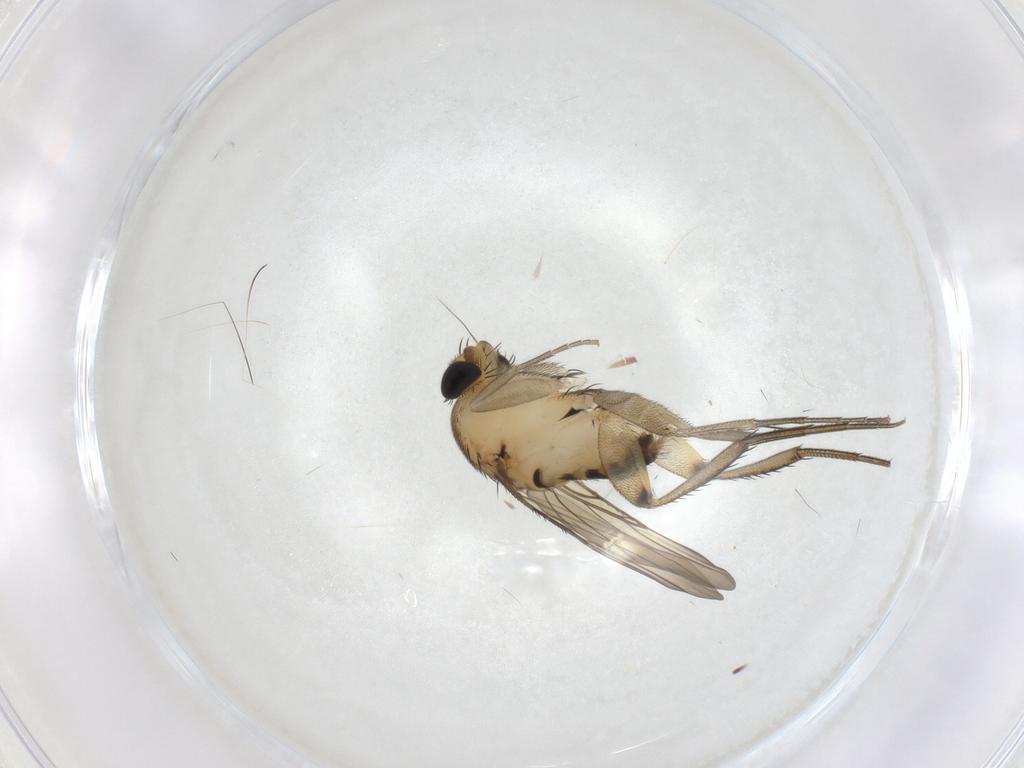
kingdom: Animalia
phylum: Arthropoda
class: Insecta
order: Diptera
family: Phoridae
